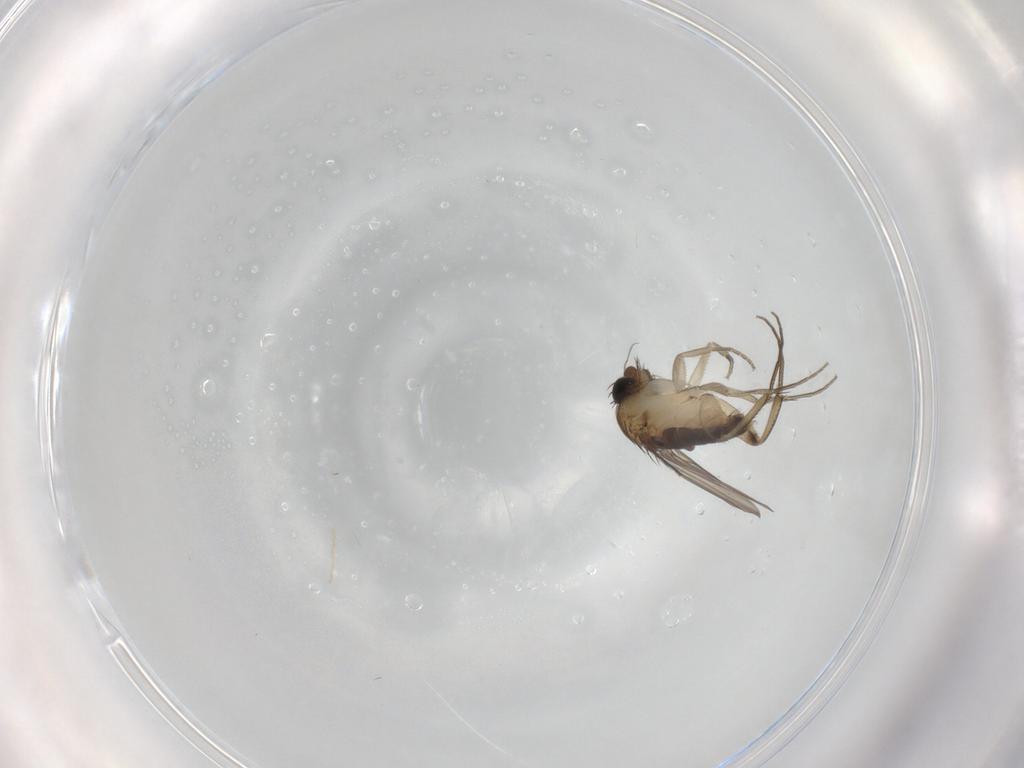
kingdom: Animalia
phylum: Arthropoda
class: Insecta
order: Diptera
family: Phoridae
